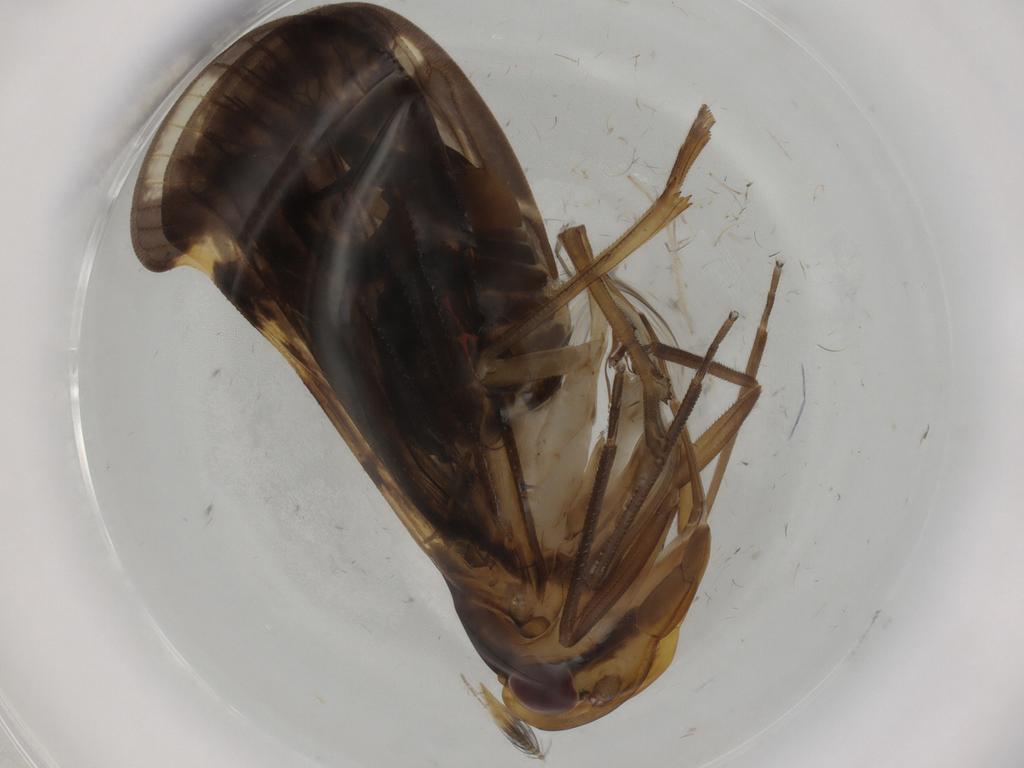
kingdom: Animalia
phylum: Arthropoda
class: Insecta
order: Hemiptera
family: Cixiidae
